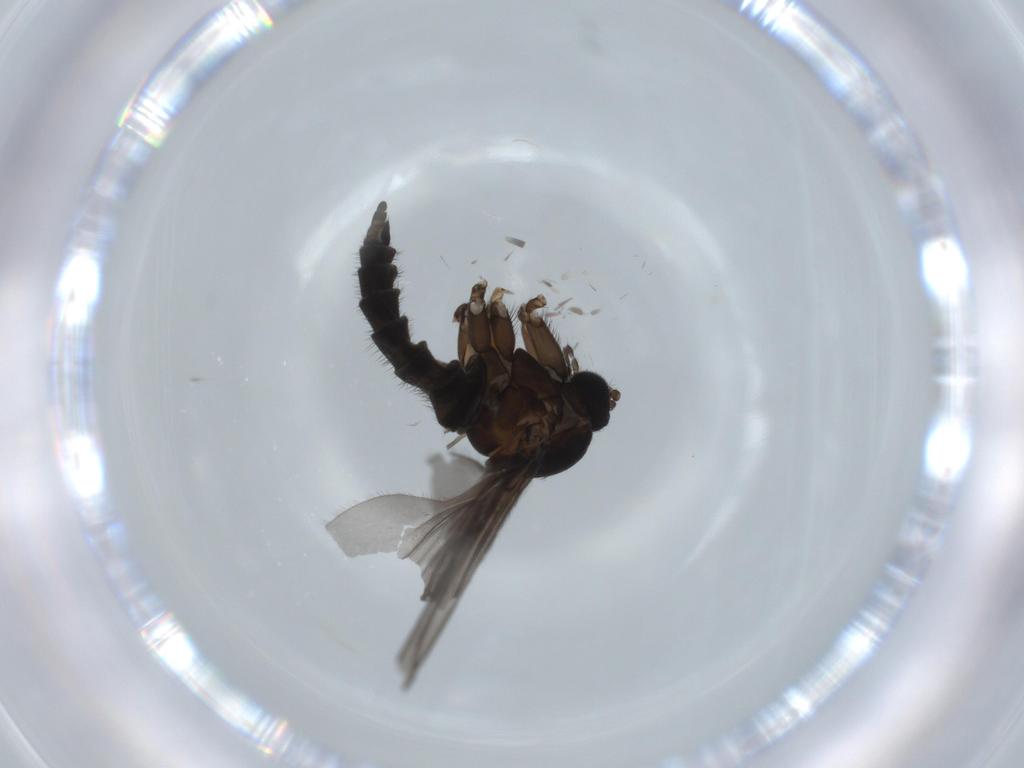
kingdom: Animalia
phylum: Arthropoda
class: Insecta
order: Diptera
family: Sciaridae
